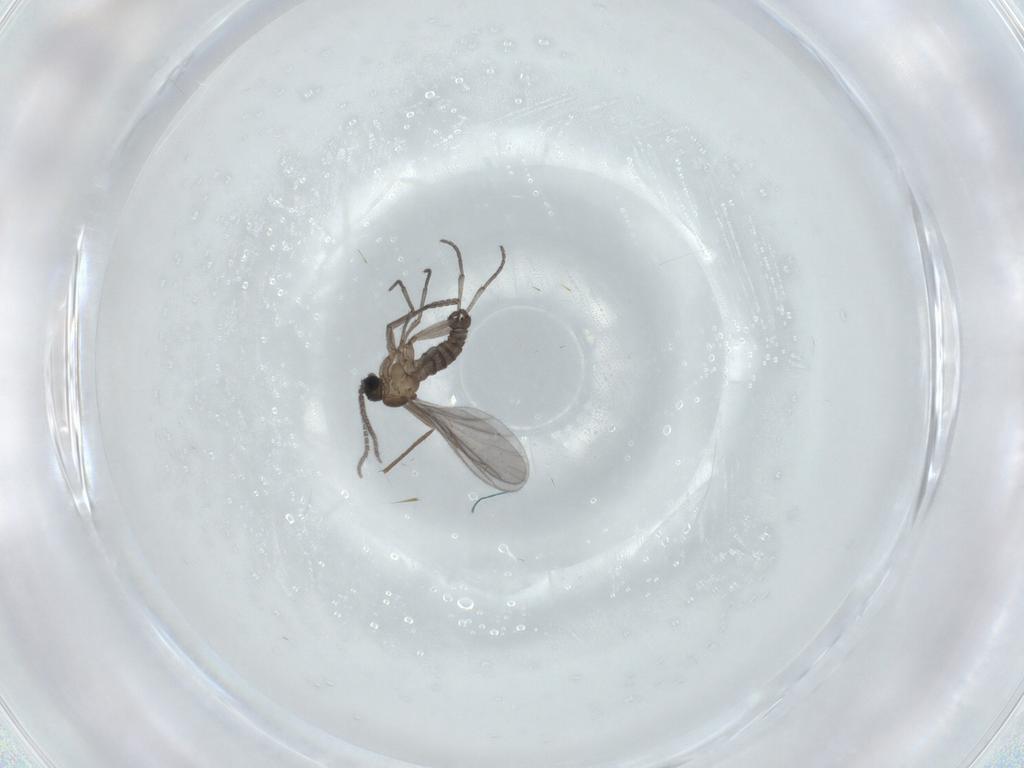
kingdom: Animalia
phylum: Arthropoda
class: Insecta
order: Diptera
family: Sciaridae
